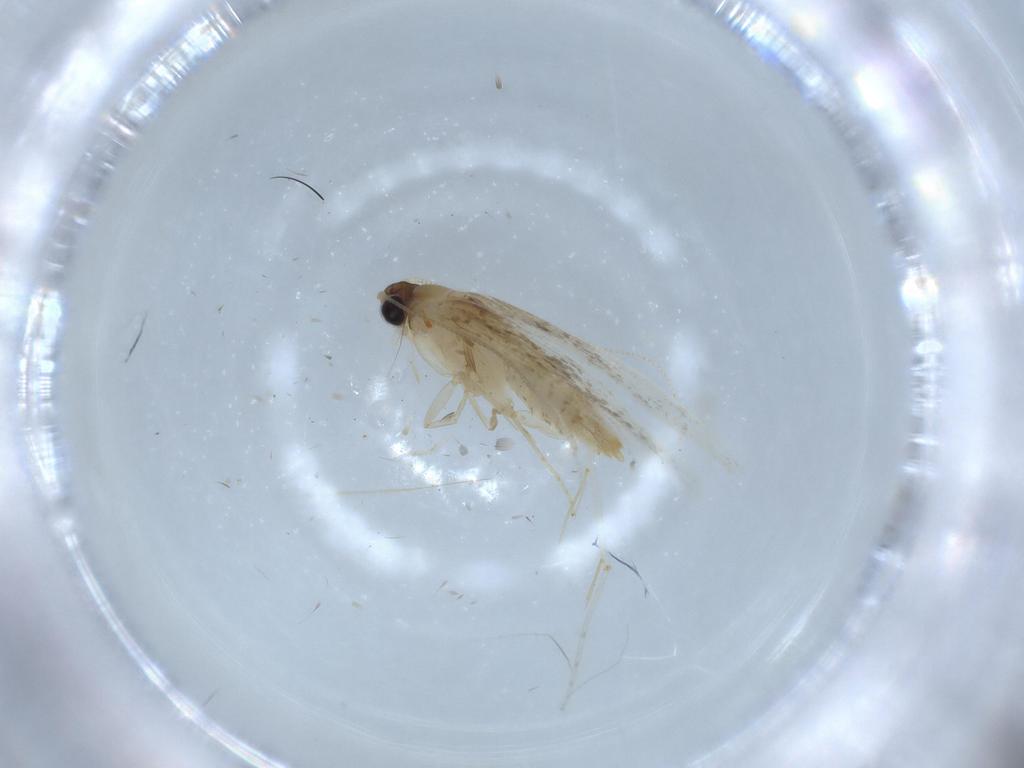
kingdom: Animalia
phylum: Arthropoda
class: Insecta
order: Lepidoptera
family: Tineidae
